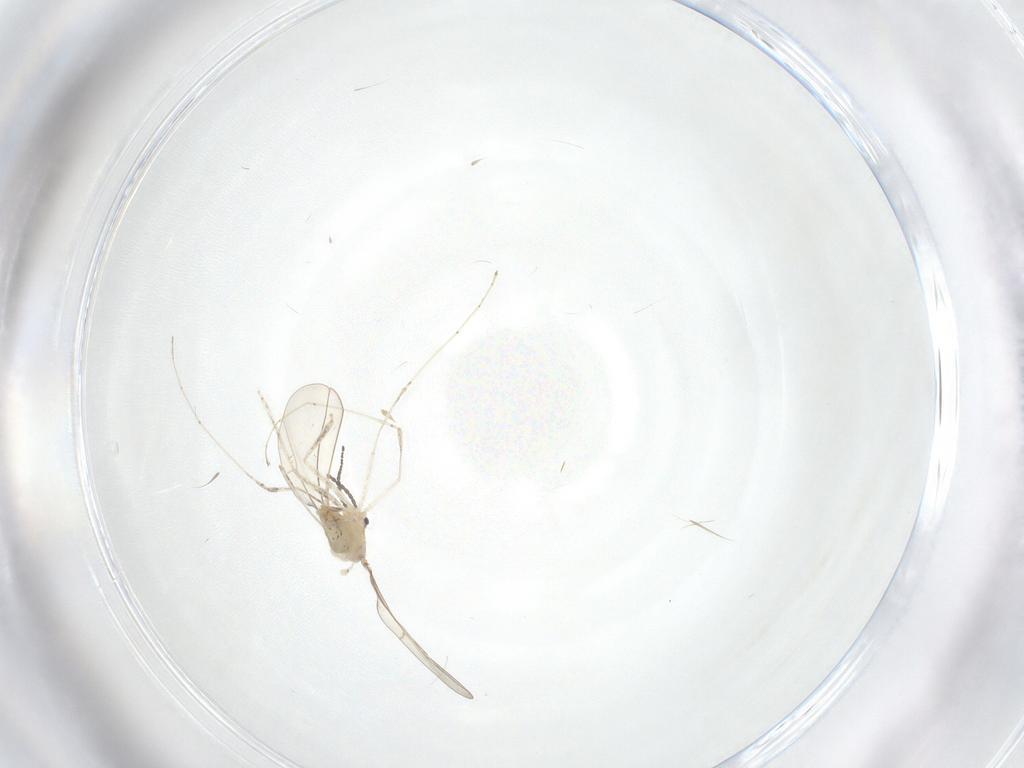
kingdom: Animalia
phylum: Arthropoda
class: Insecta
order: Diptera
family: Cecidomyiidae
